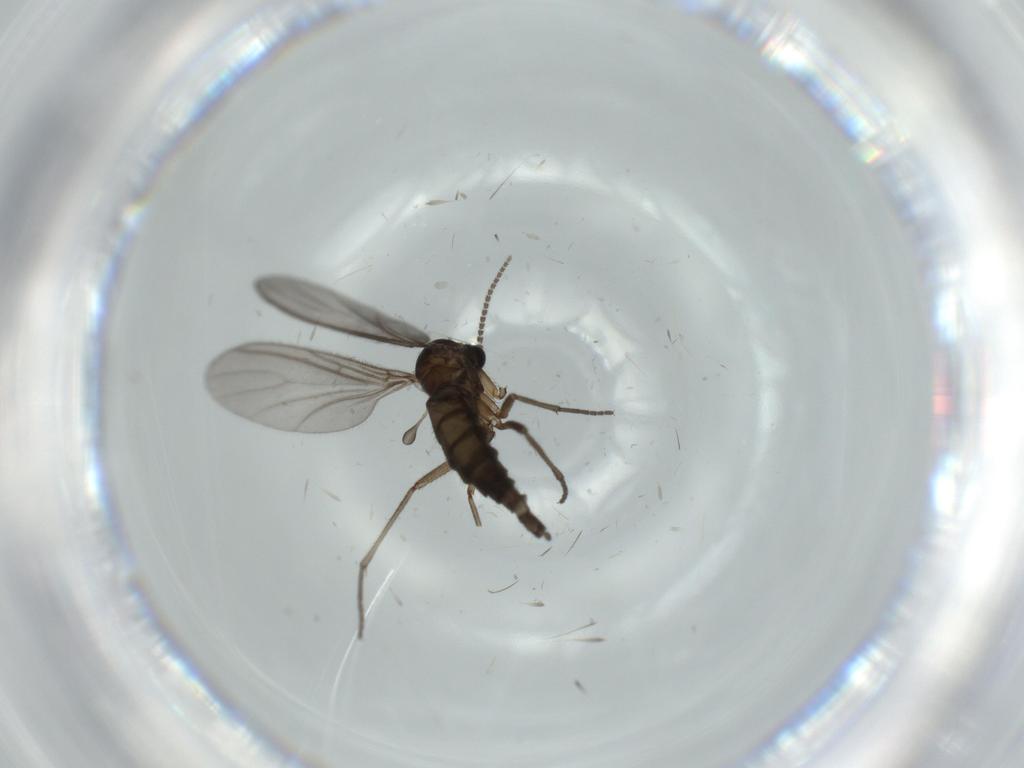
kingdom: Animalia
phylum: Arthropoda
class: Insecta
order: Diptera
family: Sciaridae
